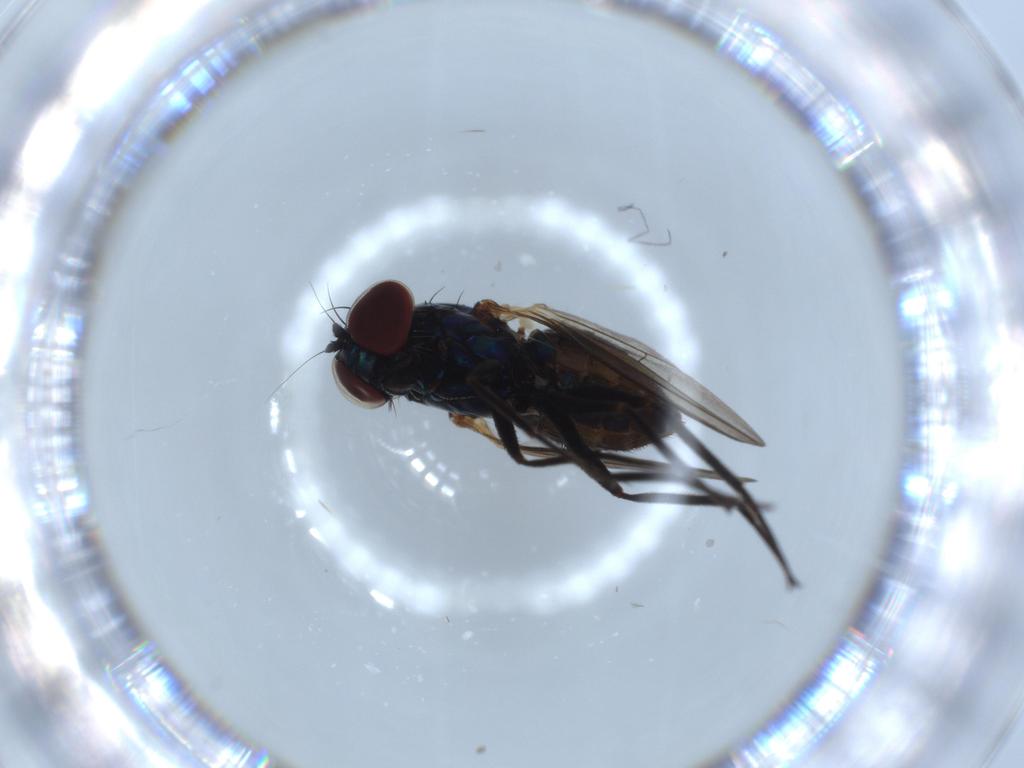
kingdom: Animalia
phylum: Arthropoda
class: Insecta
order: Diptera
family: Dolichopodidae
